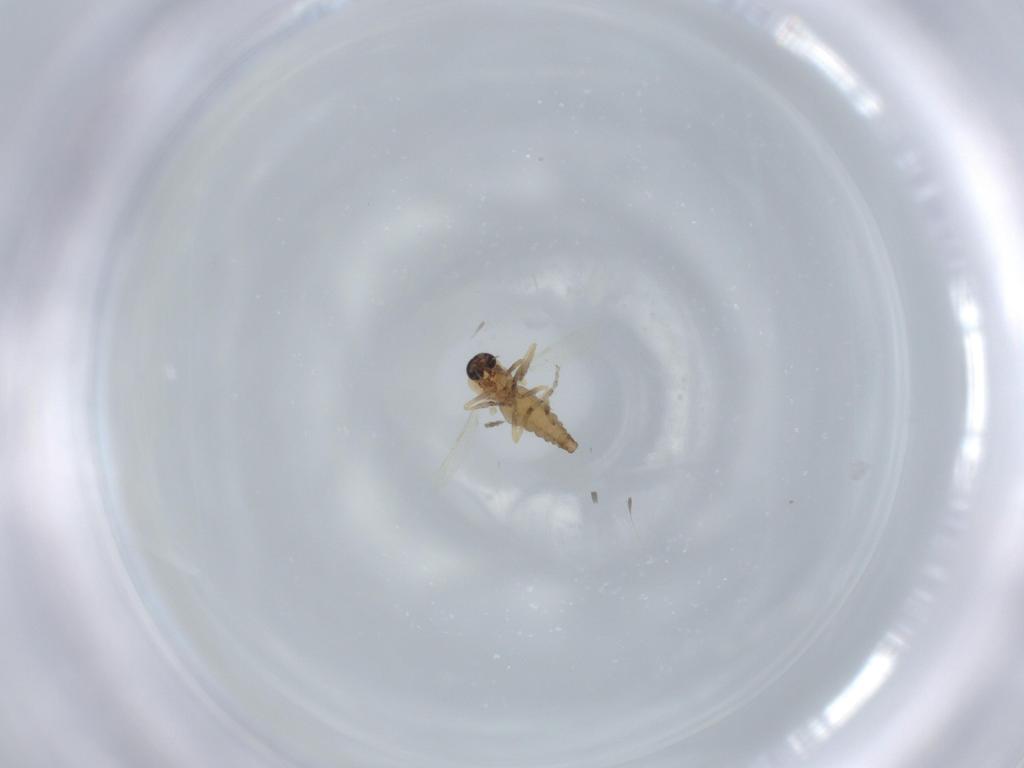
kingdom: Animalia
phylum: Arthropoda
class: Insecta
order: Diptera
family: Ceratopogonidae
